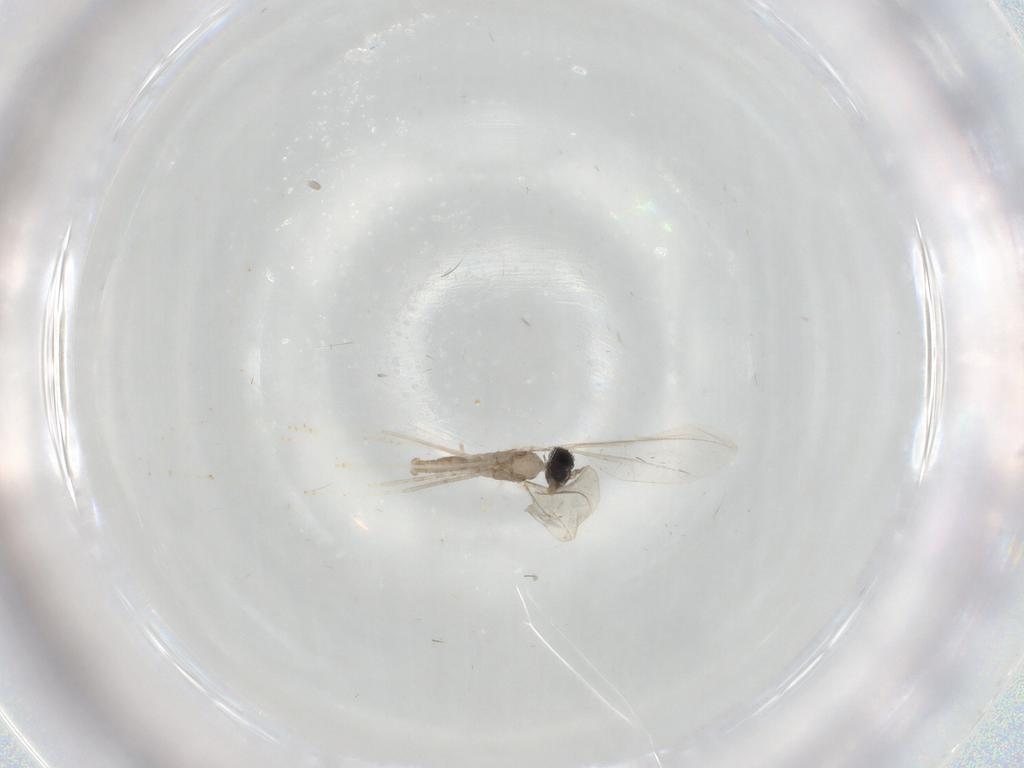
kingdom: Animalia
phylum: Arthropoda
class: Insecta
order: Diptera
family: Cecidomyiidae
